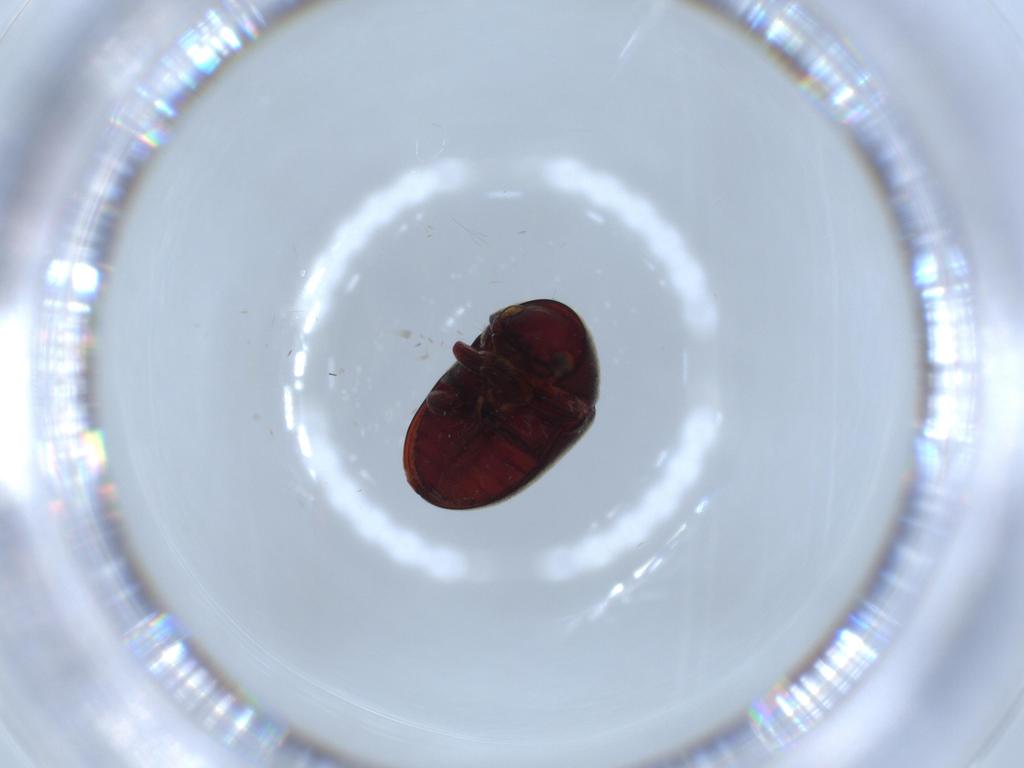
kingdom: Animalia
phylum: Arthropoda
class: Insecta
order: Coleoptera
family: Ptinidae
